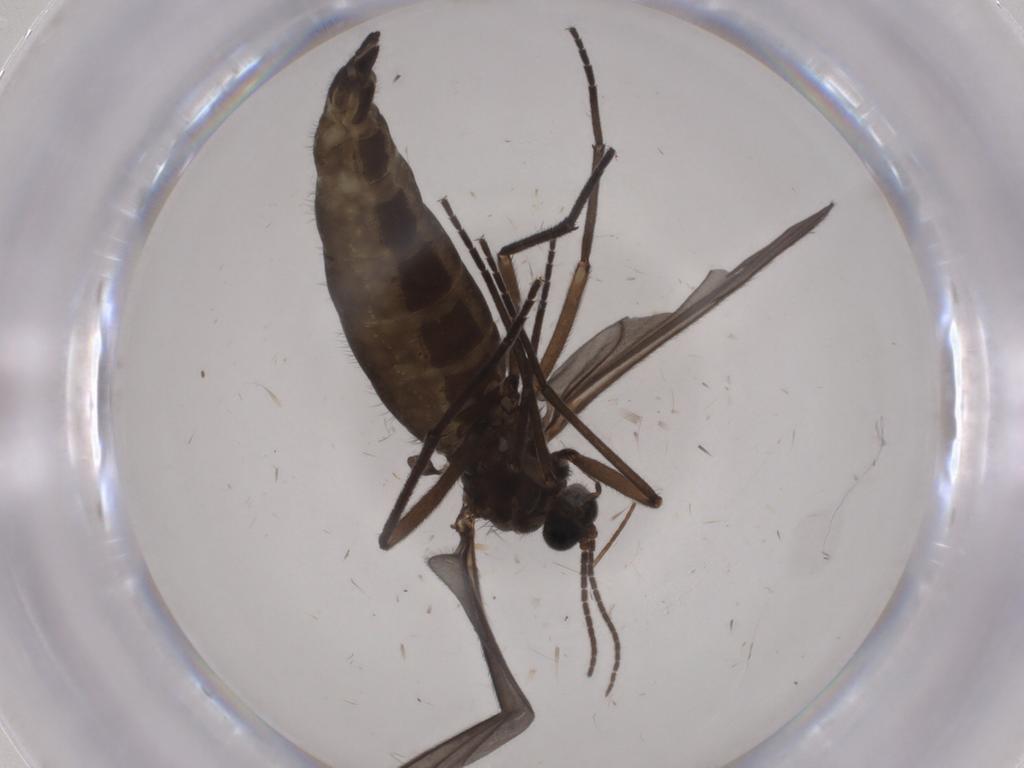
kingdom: Animalia
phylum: Arthropoda
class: Insecta
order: Diptera
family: Sciaridae
